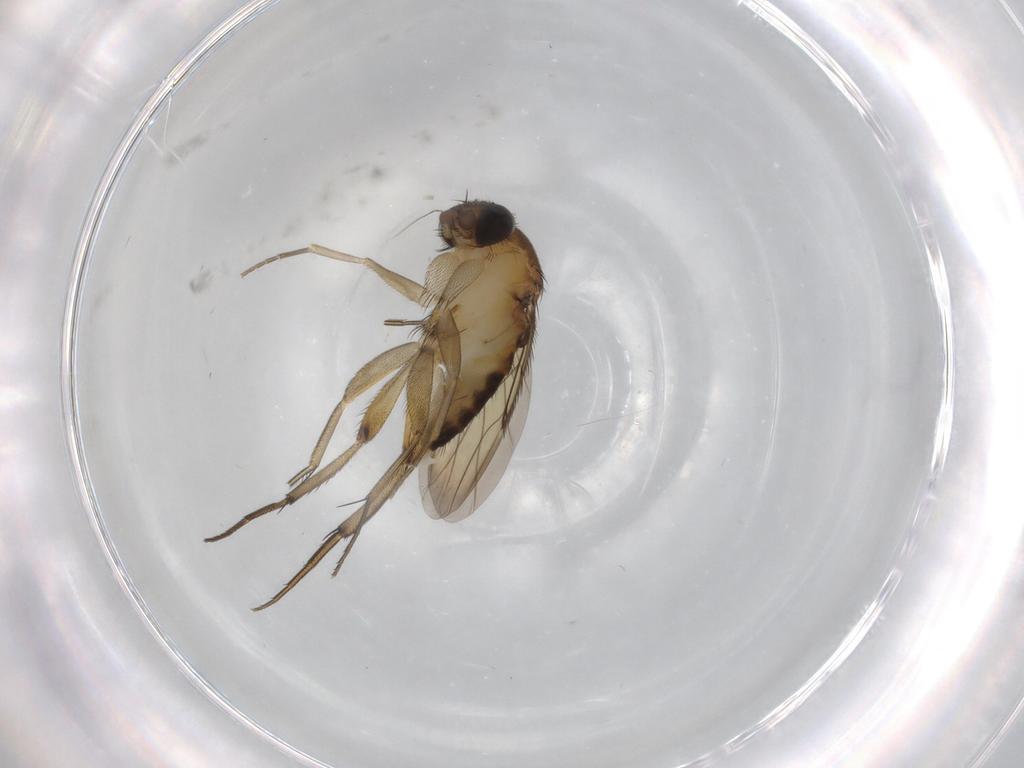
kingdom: Animalia
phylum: Arthropoda
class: Insecta
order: Diptera
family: Phoridae
